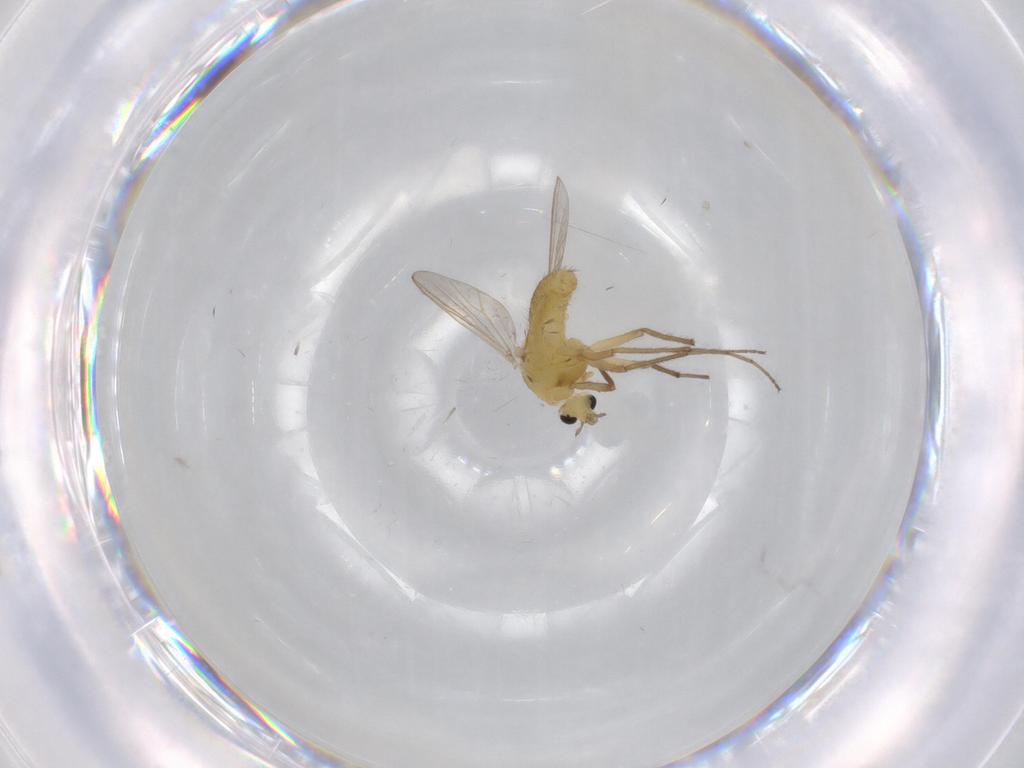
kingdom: Animalia
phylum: Arthropoda
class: Insecta
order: Diptera
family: Chironomidae
